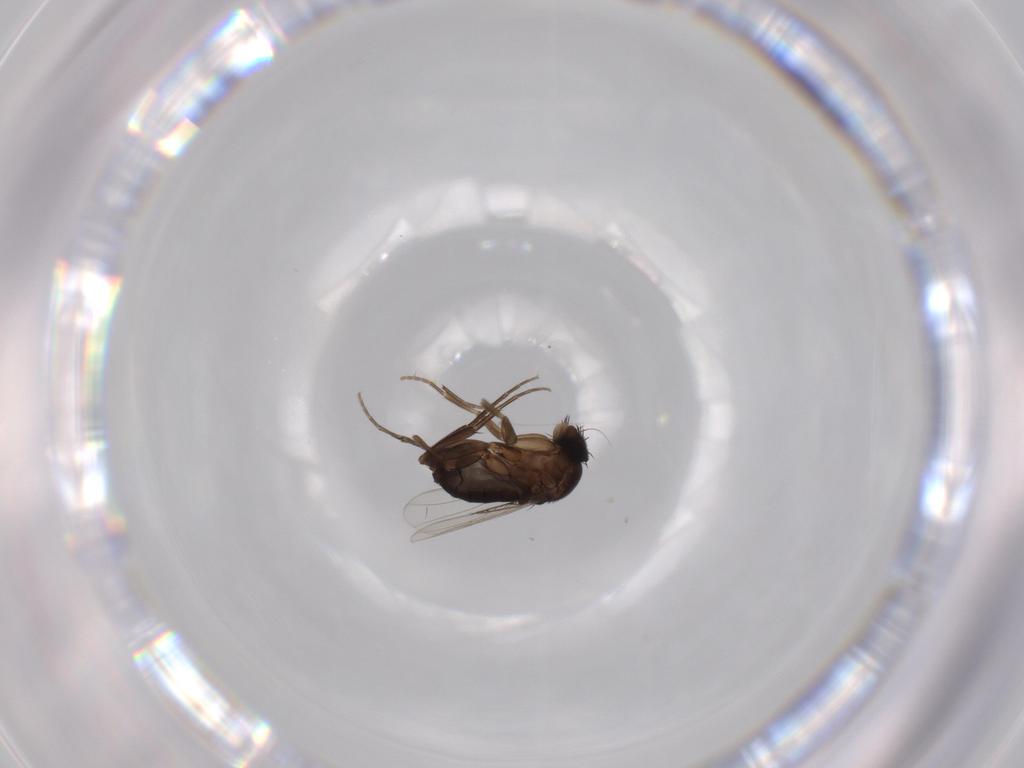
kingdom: Animalia
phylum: Arthropoda
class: Insecta
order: Diptera
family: Phoridae
